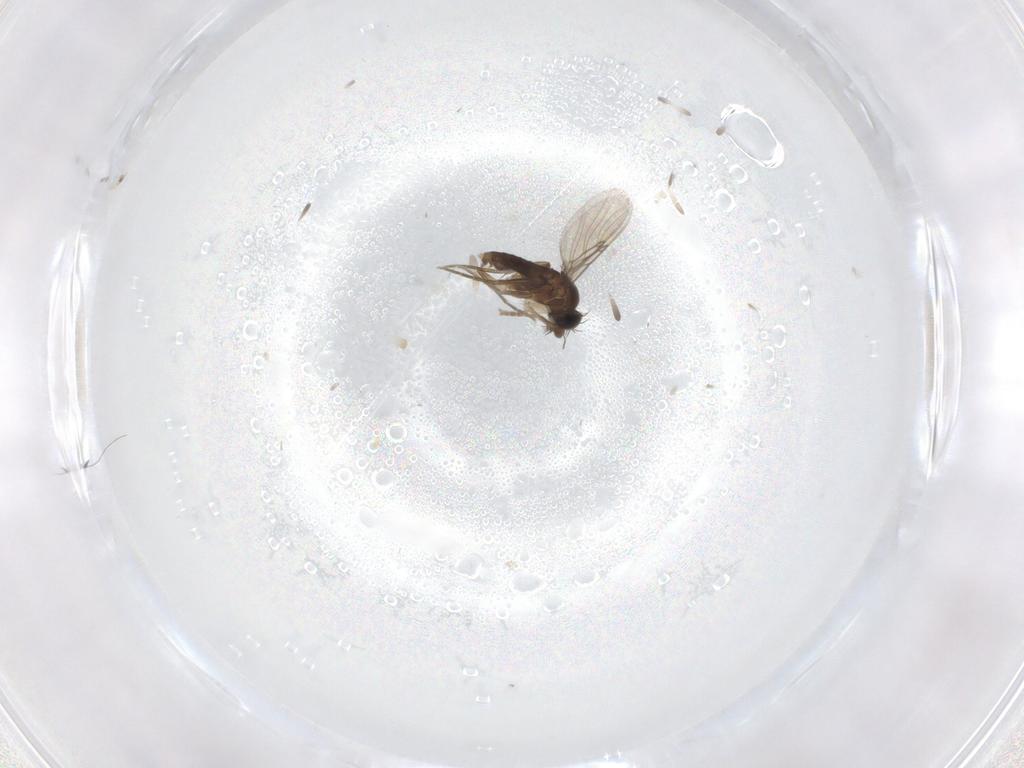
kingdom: Animalia
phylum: Arthropoda
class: Insecta
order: Diptera
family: Phoridae
